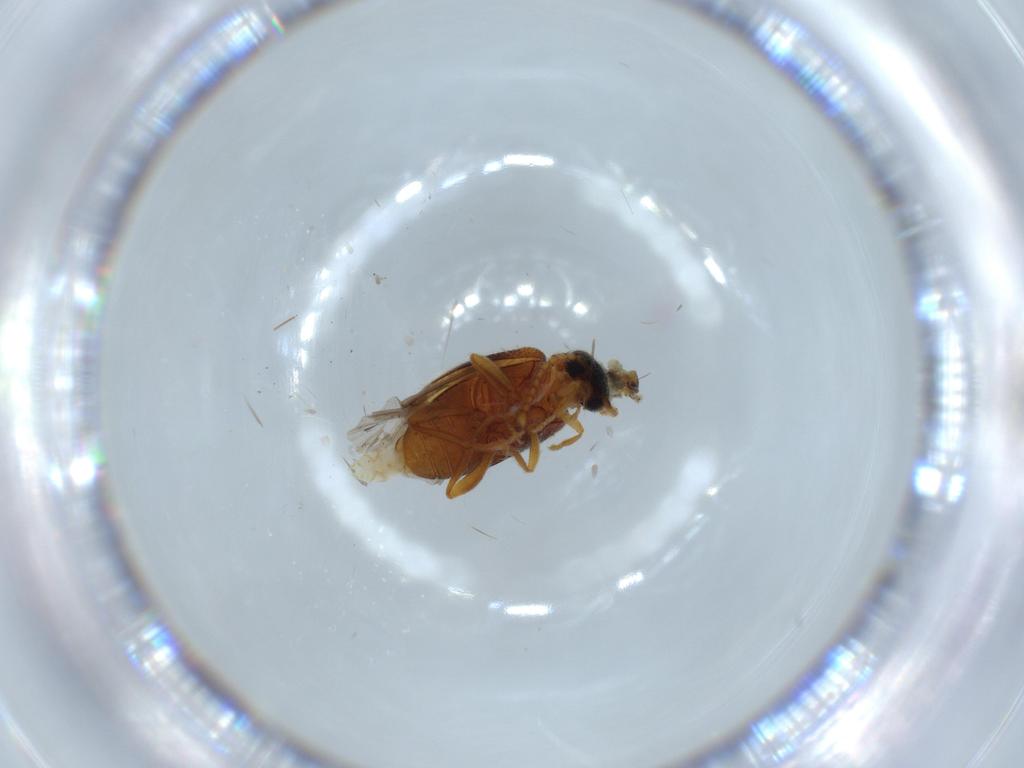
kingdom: Animalia
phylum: Arthropoda
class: Insecta
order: Coleoptera
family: Aderidae
